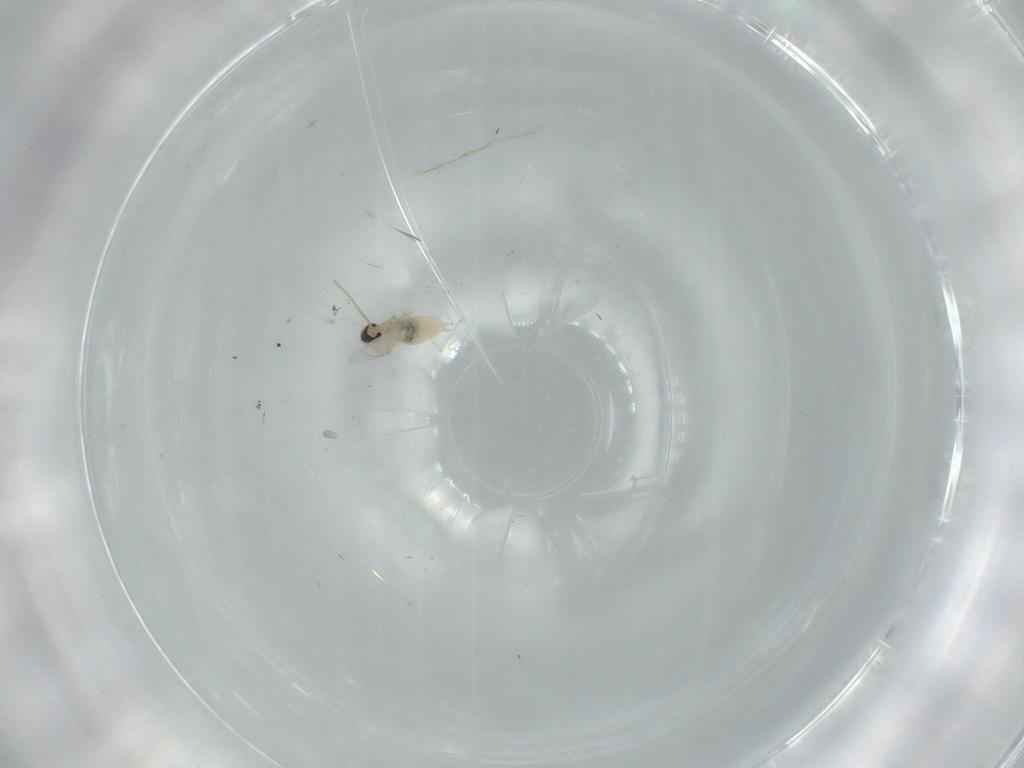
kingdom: Animalia
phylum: Arthropoda
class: Insecta
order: Diptera
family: Cecidomyiidae
